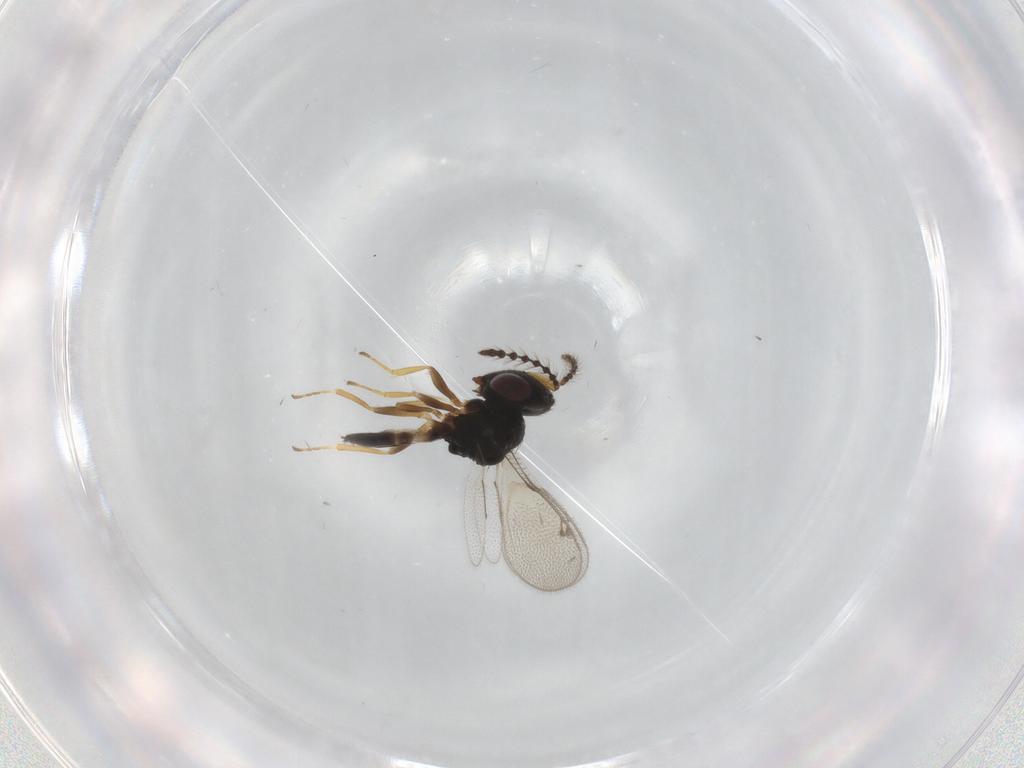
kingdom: Animalia
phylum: Arthropoda
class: Insecta
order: Hymenoptera
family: Pteromalidae
